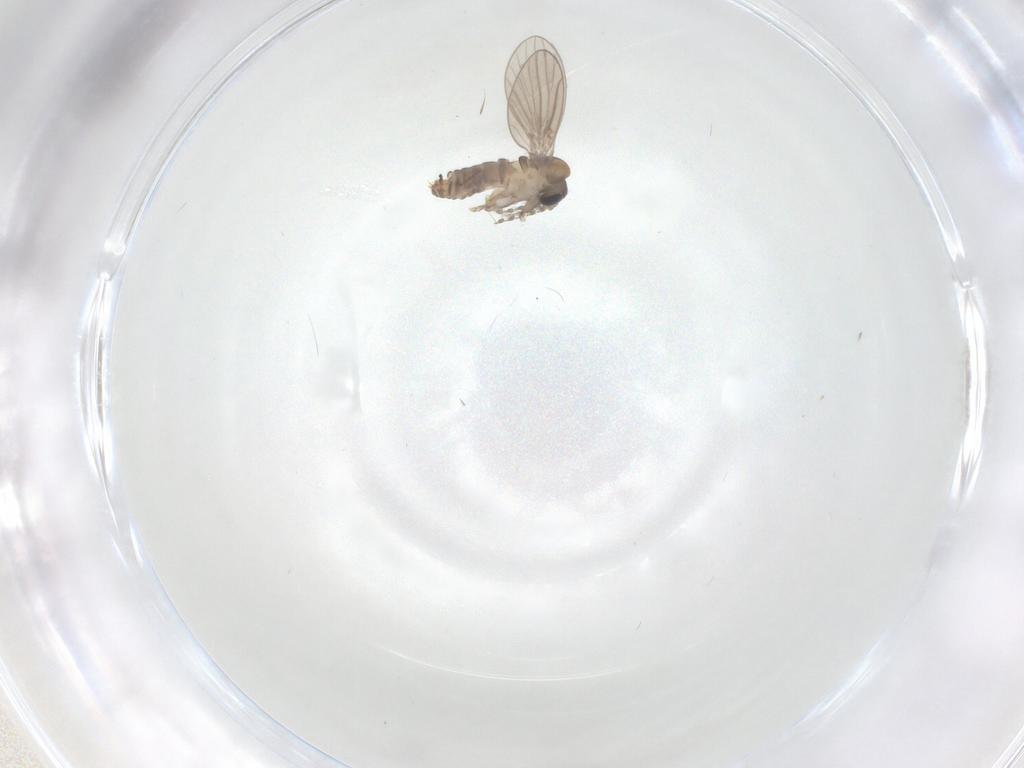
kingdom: Animalia
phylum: Arthropoda
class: Insecta
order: Diptera
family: Psychodidae
